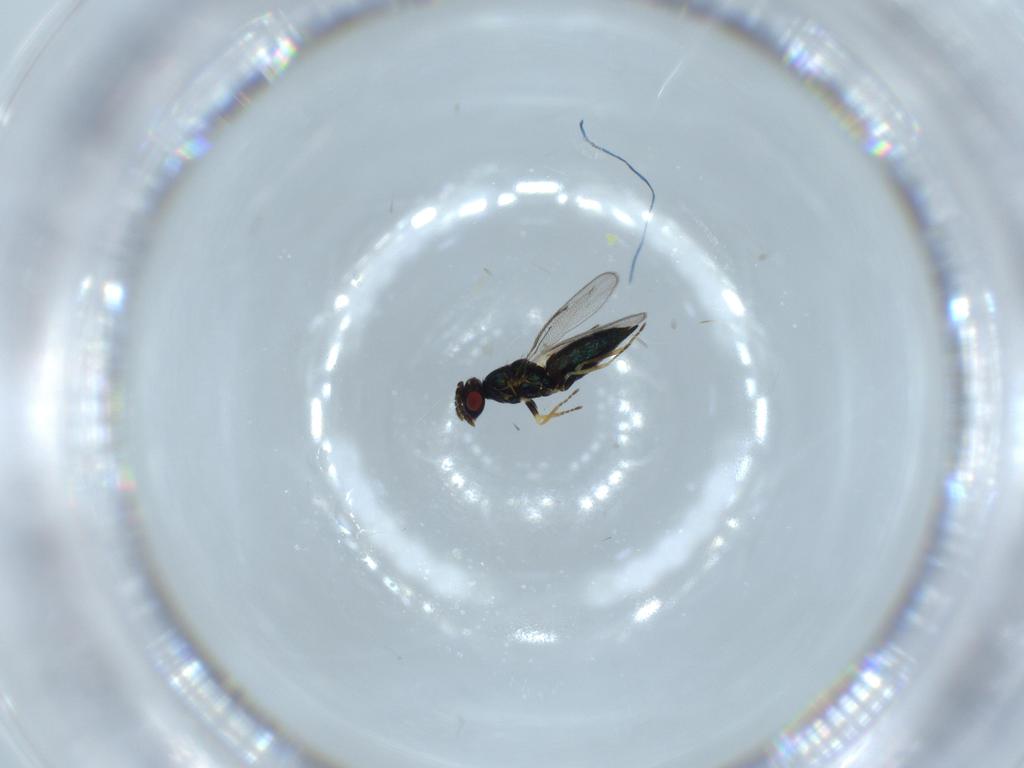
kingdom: Animalia
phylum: Arthropoda
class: Insecta
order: Hymenoptera
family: Eulophidae
